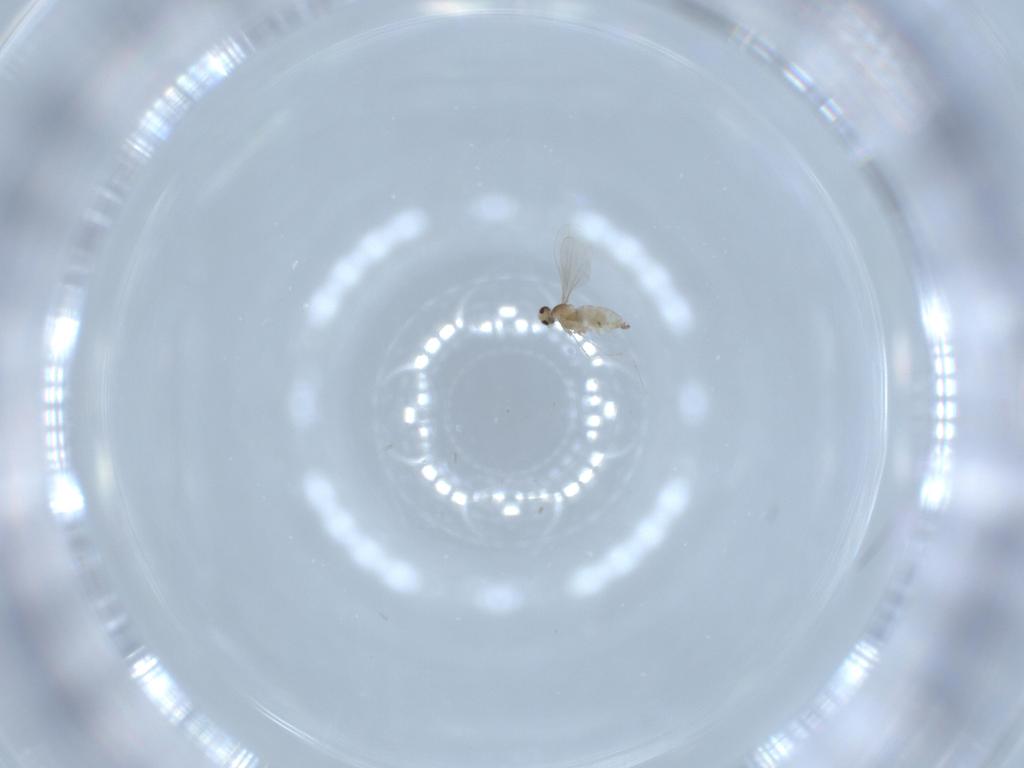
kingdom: Animalia
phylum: Arthropoda
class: Insecta
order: Diptera
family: Cecidomyiidae
